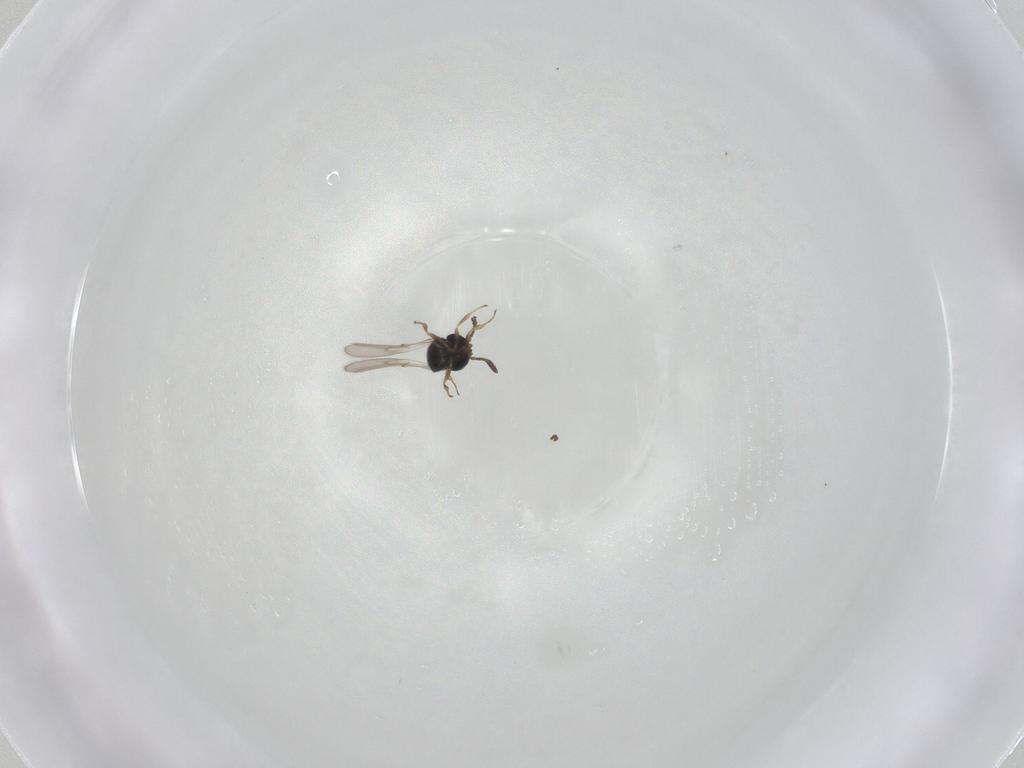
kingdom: Animalia
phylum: Arthropoda
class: Insecta
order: Hymenoptera
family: Scelionidae
